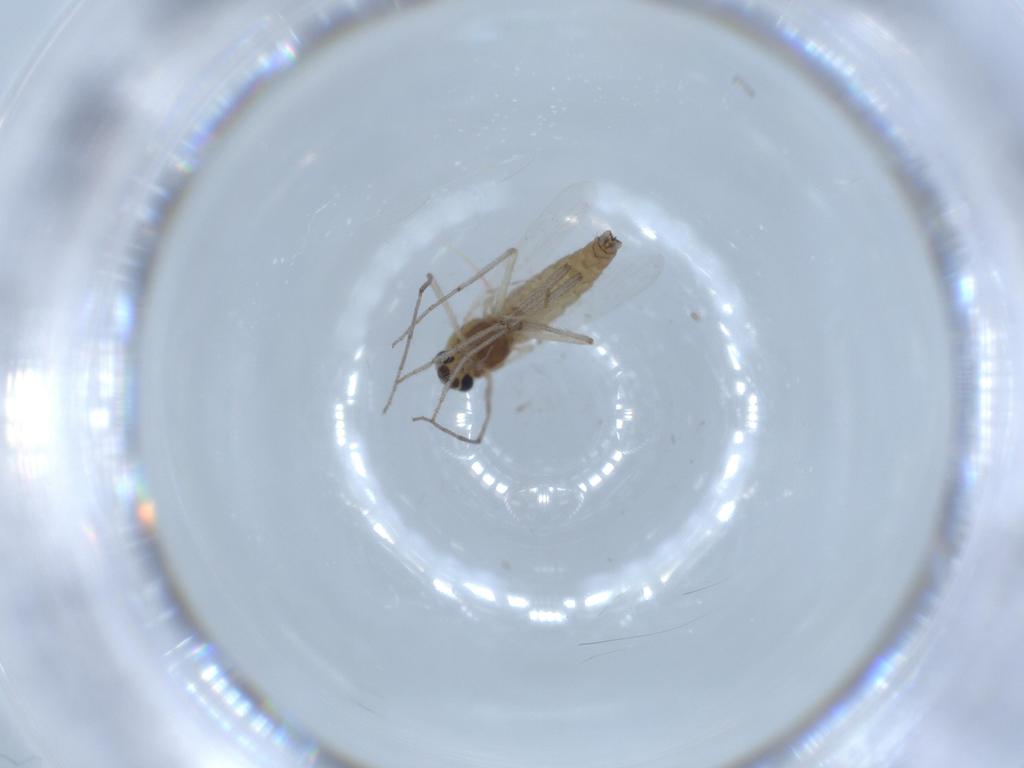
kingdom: Animalia
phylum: Arthropoda
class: Insecta
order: Diptera
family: Chironomidae
